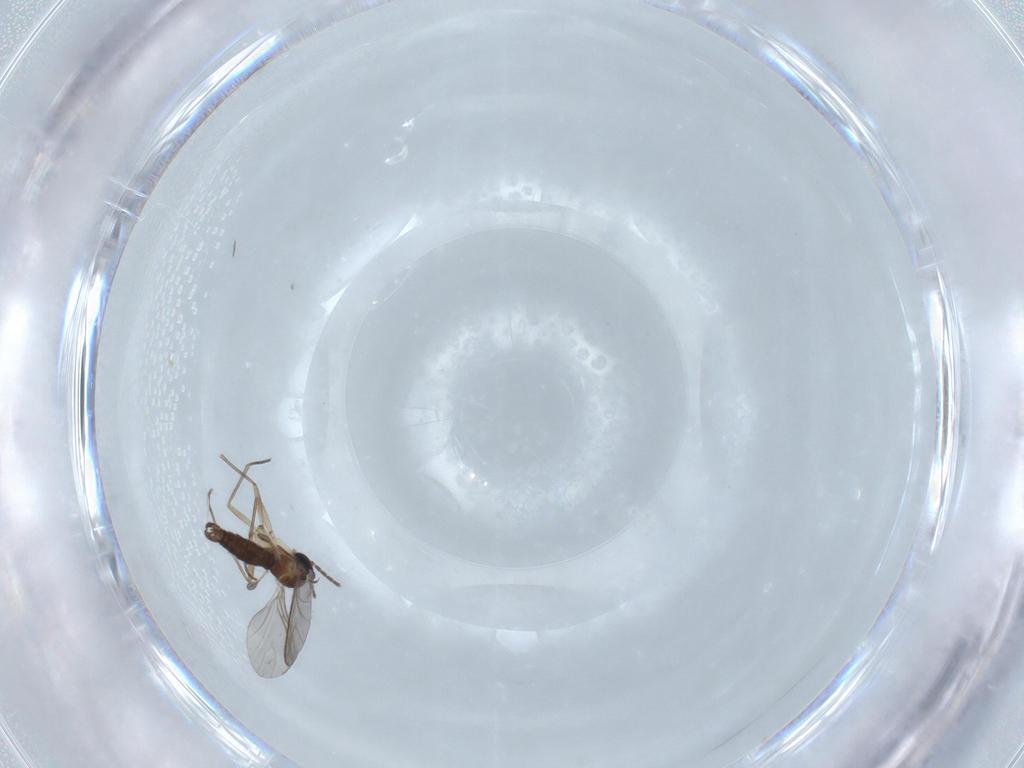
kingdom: Animalia
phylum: Arthropoda
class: Insecta
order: Diptera
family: Sciaridae
